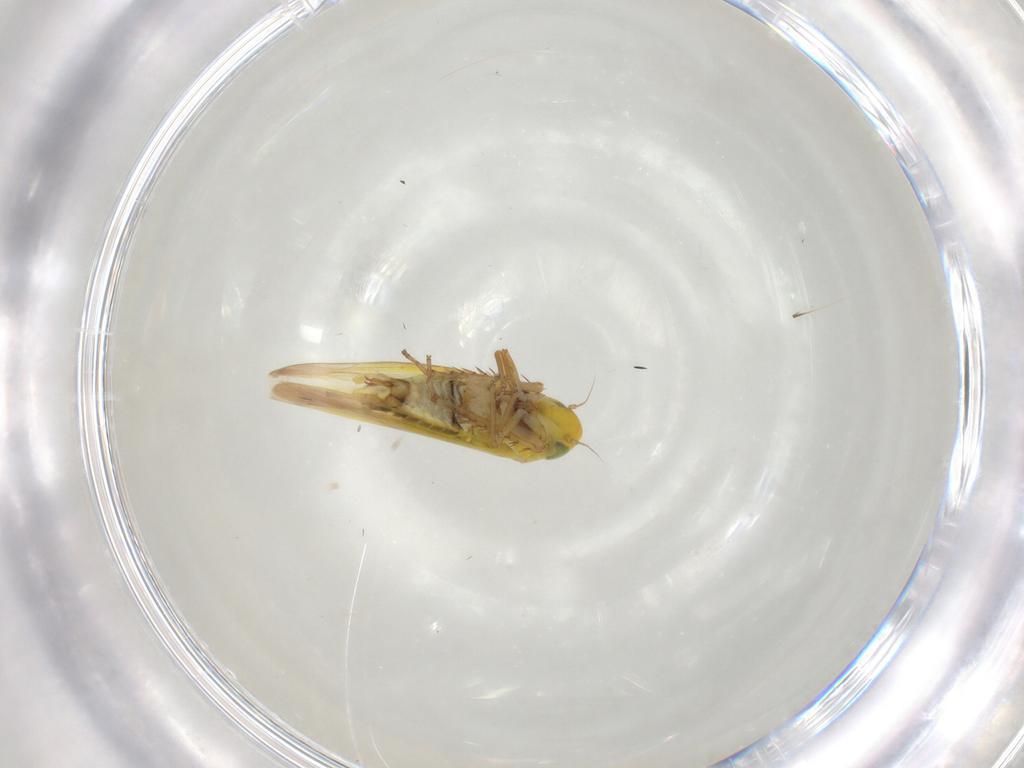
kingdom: Animalia
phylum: Arthropoda
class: Insecta
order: Hemiptera
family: Cicadellidae
